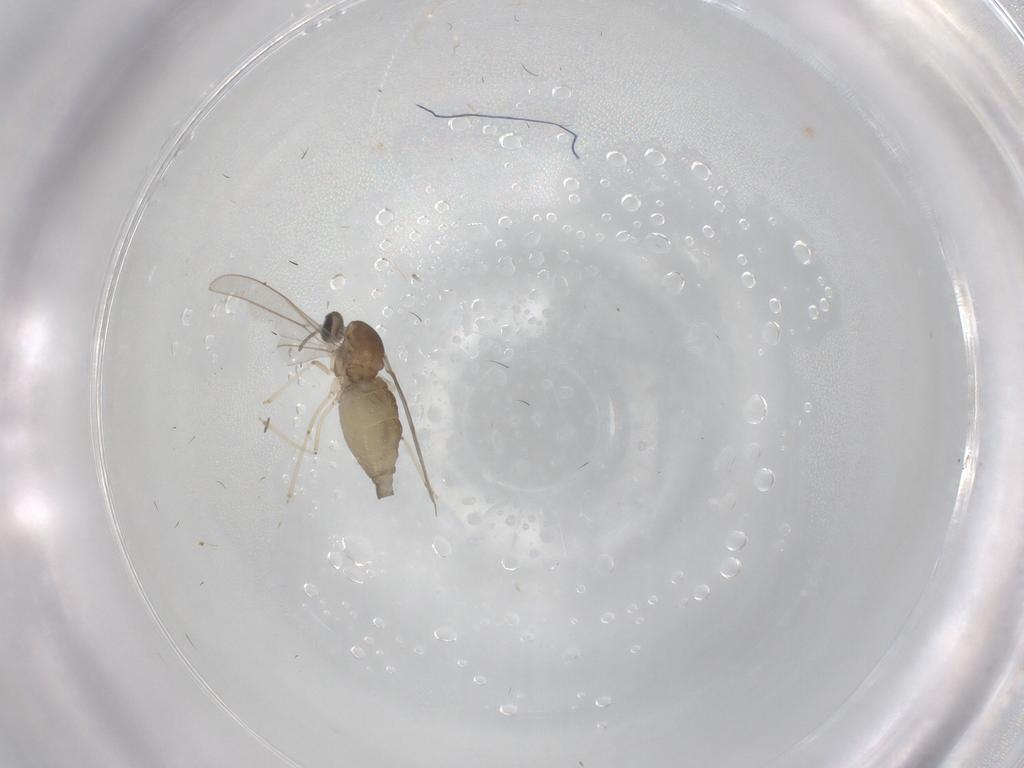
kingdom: Animalia
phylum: Arthropoda
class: Insecta
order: Diptera
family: Cecidomyiidae
